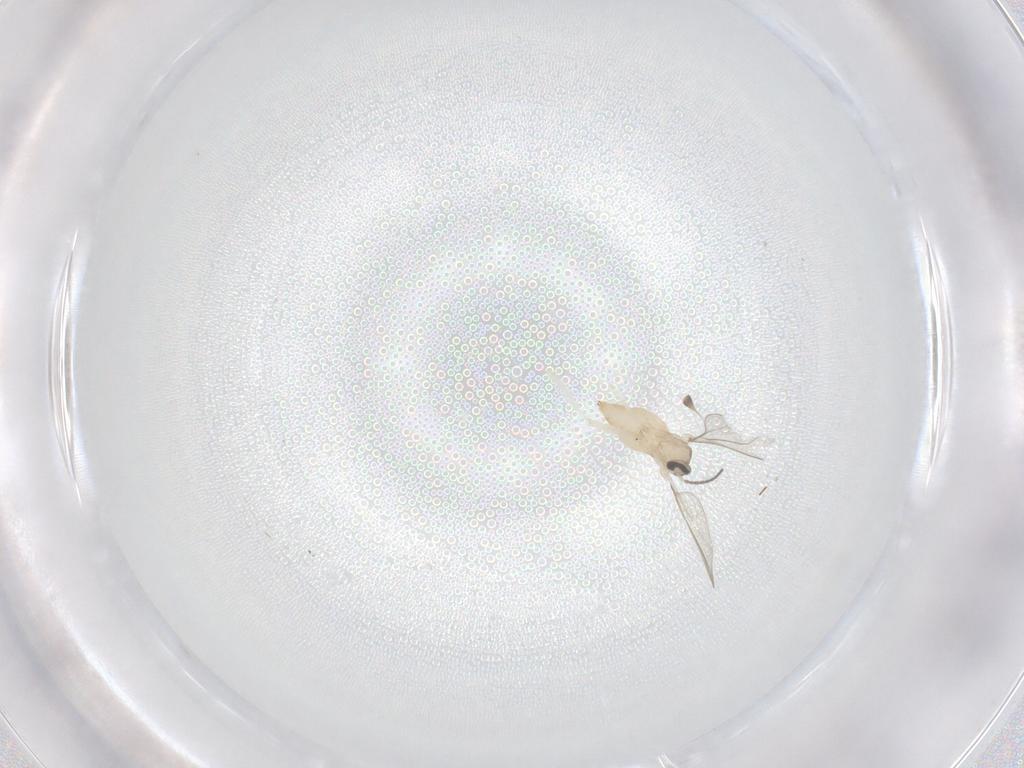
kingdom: Animalia
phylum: Arthropoda
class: Insecta
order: Diptera
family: Cecidomyiidae
